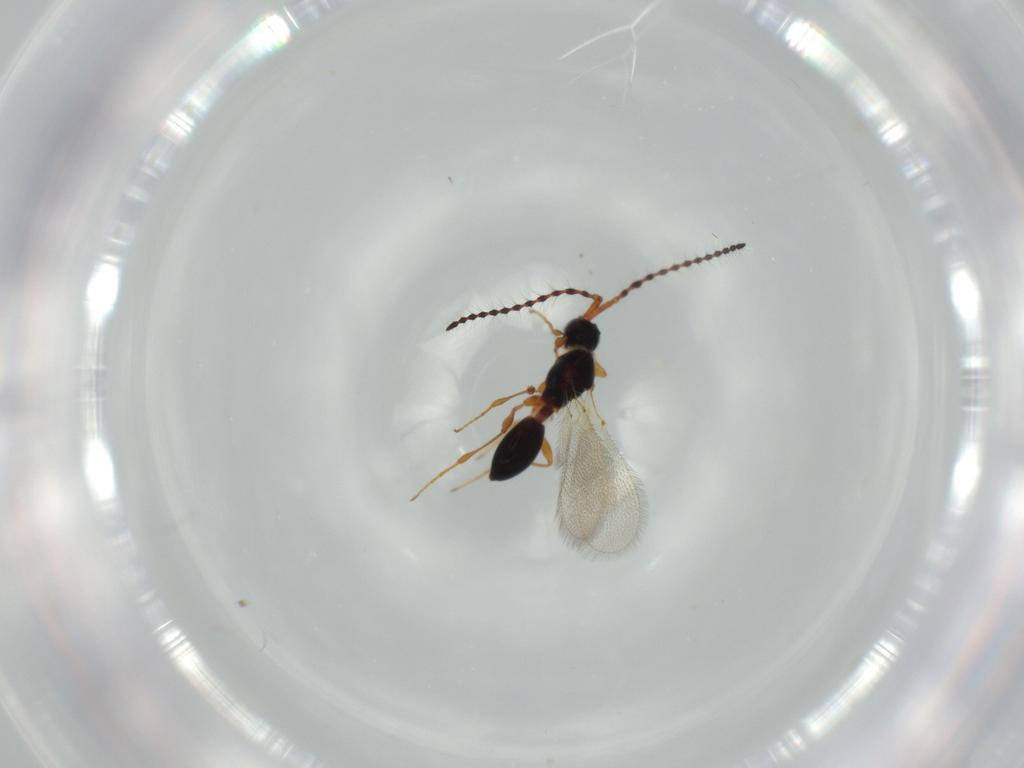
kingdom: Animalia
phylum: Arthropoda
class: Insecta
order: Hymenoptera
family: Diapriidae
